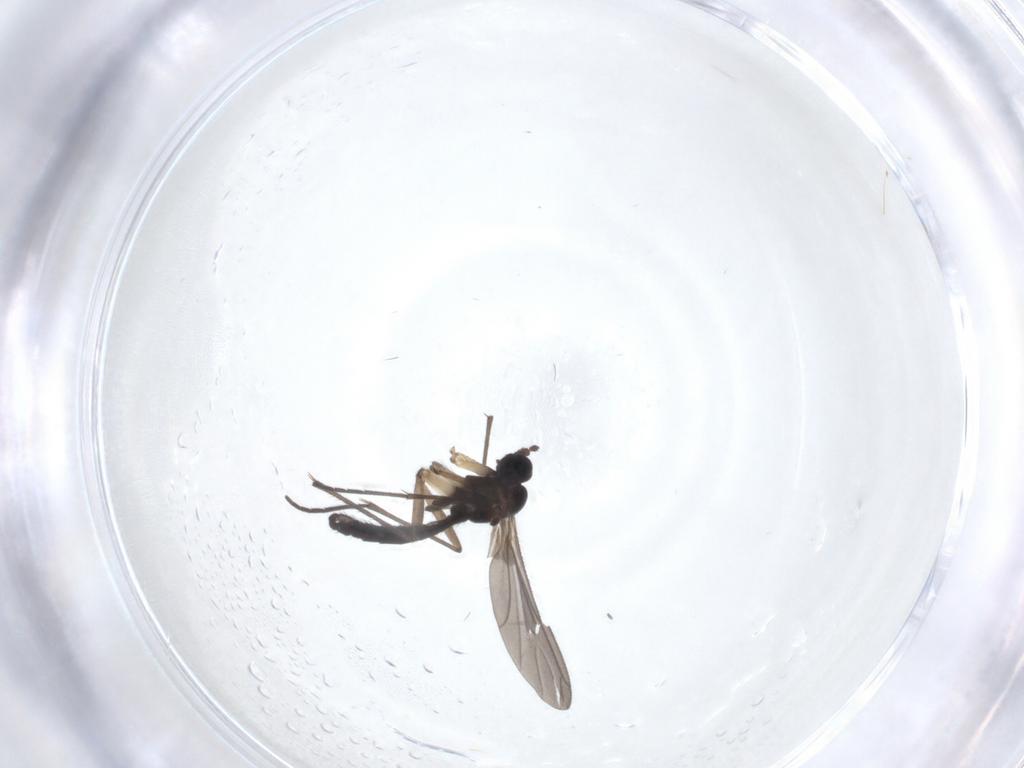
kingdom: Animalia
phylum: Arthropoda
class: Insecta
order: Diptera
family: Sciaridae
